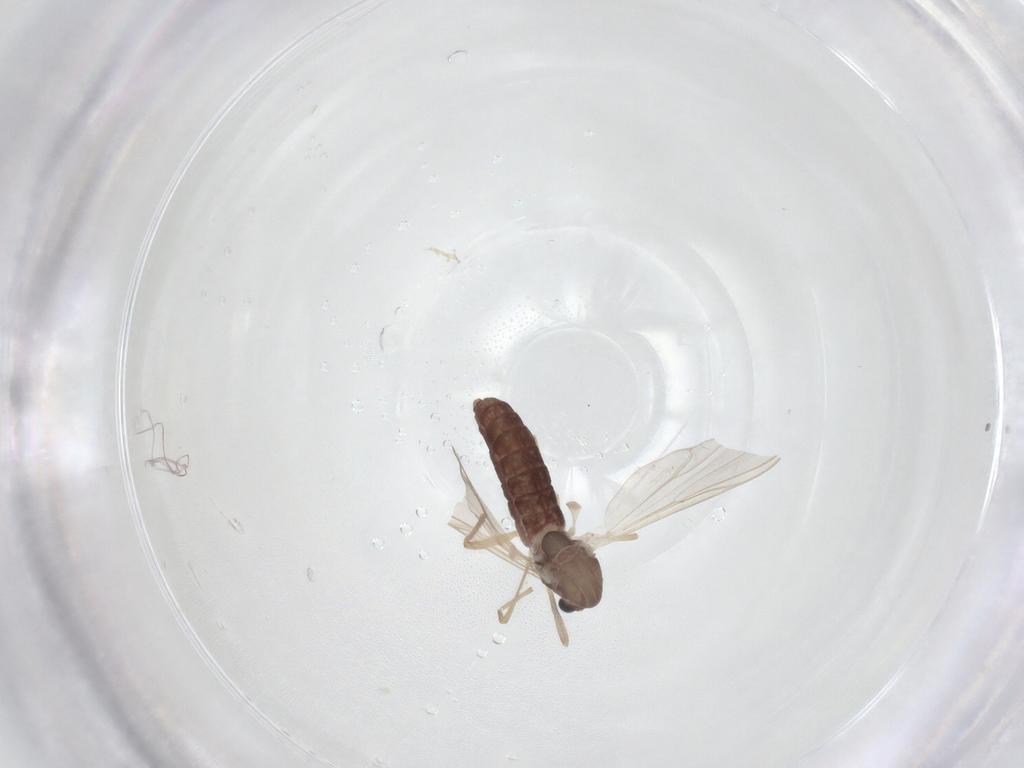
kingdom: Animalia
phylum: Arthropoda
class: Insecta
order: Diptera
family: Chironomidae
